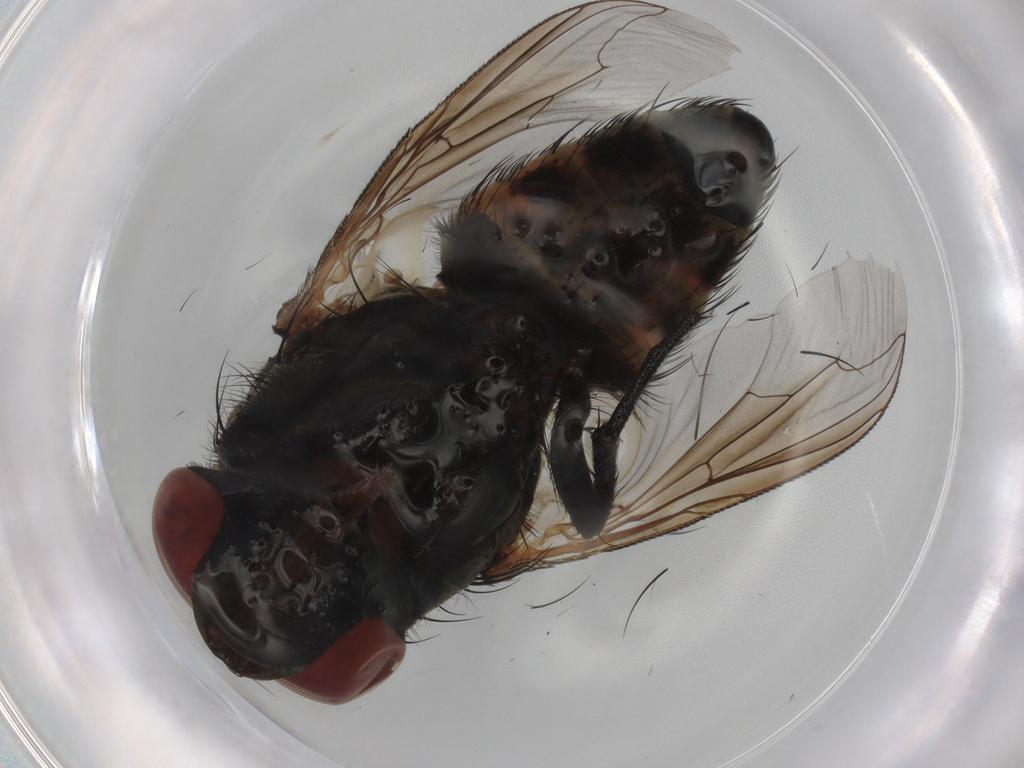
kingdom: Animalia
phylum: Arthropoda
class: Insecta
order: Diptera
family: Sarcophagidae
